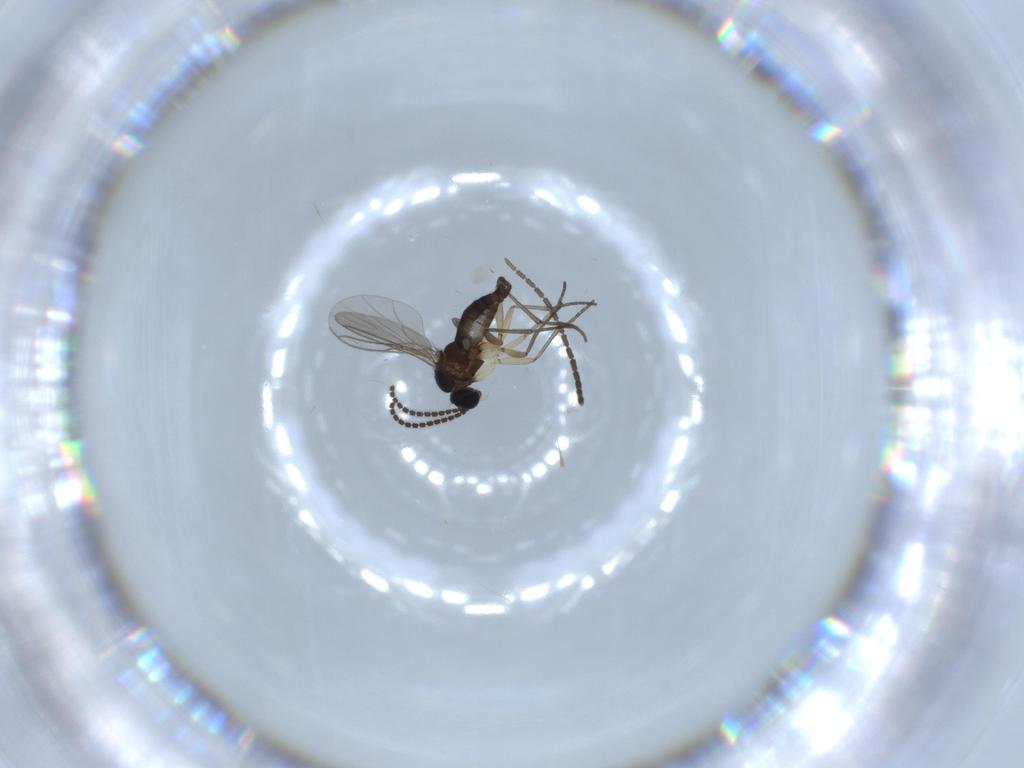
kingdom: Animalia
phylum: Arthropoda
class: Insecta
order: Diptera
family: Sciaridae
